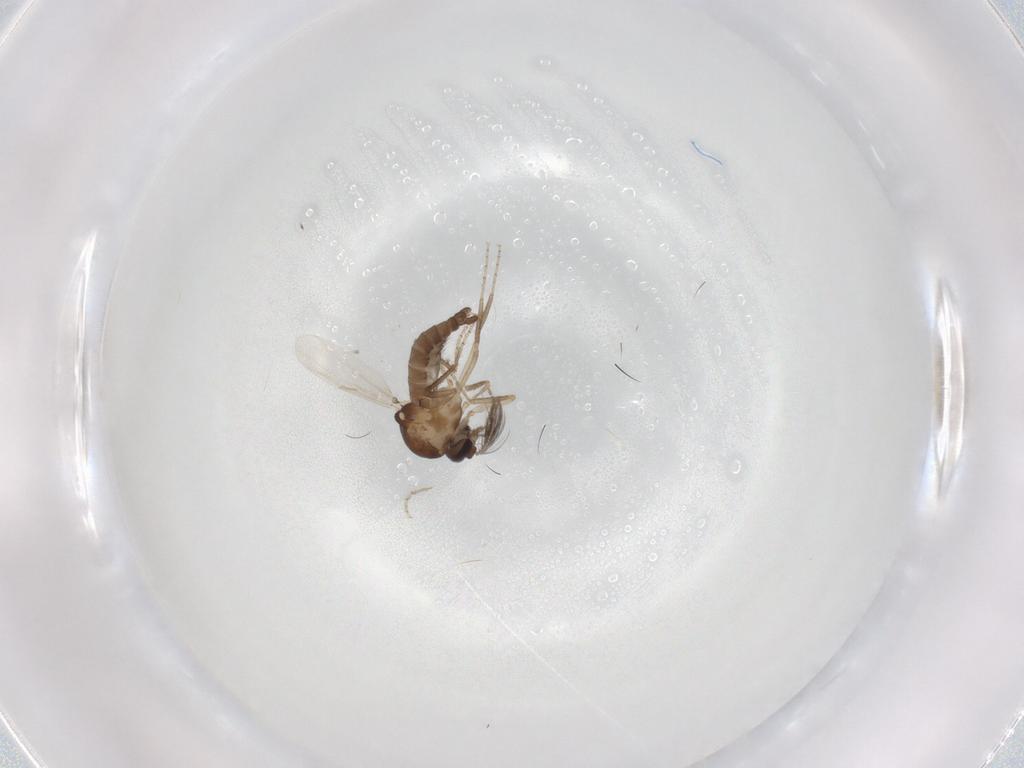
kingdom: Animalia
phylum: Arthropoda
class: Insecta
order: Diptera
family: Ceratopogonidae
